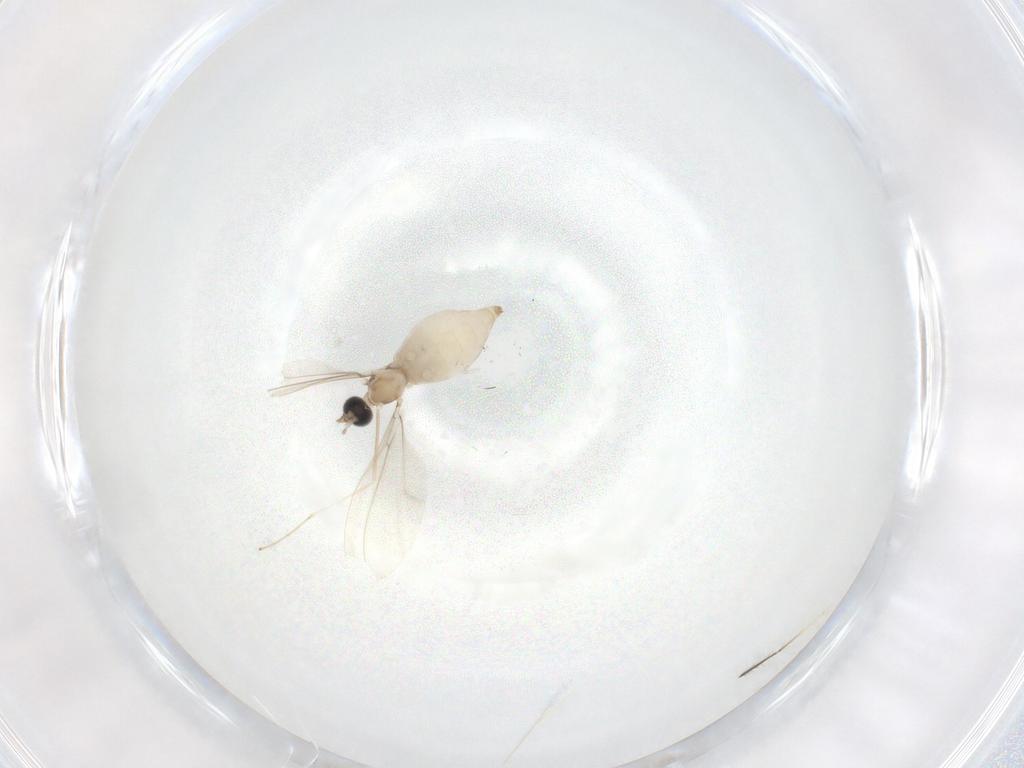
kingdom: Animalia
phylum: Arthropoda
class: Insecta
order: Diptera
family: Cecidomyiidae
